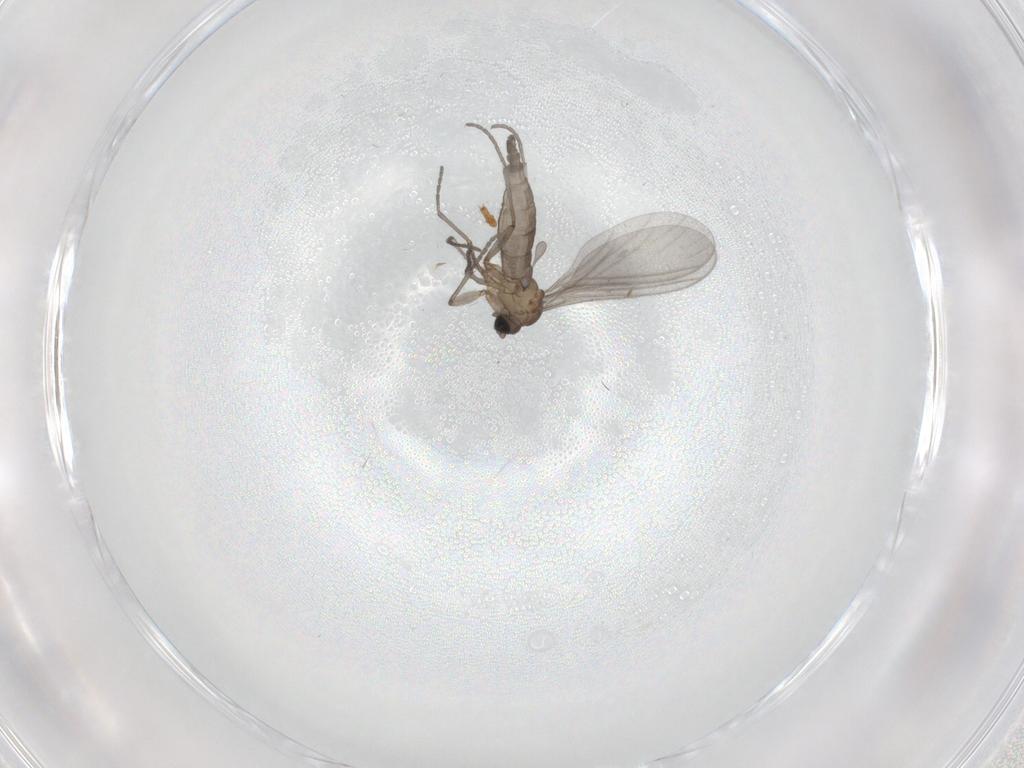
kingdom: Animalia
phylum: Arthropoda
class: Insecta
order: Diptera
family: Sciaridae
